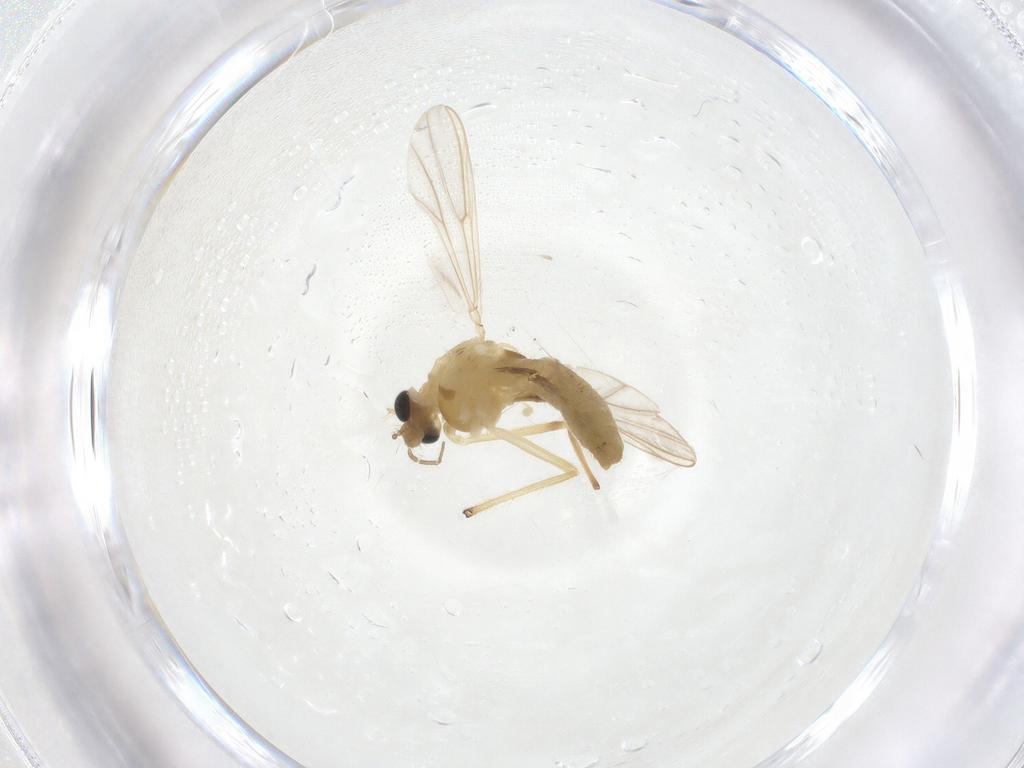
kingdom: Animalia
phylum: Arthropoda
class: Insecta
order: Diptera
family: Chironomidae
